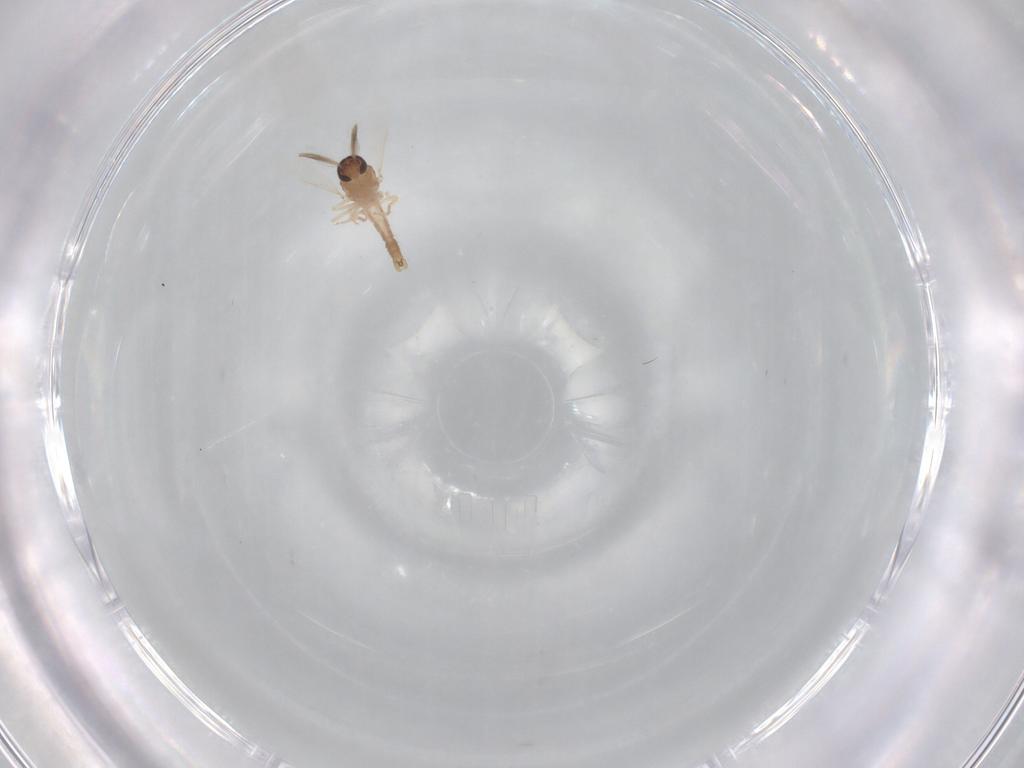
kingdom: Animalia
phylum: Arthropoda
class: Insecta
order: Diptera
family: Ceratopogonidae
